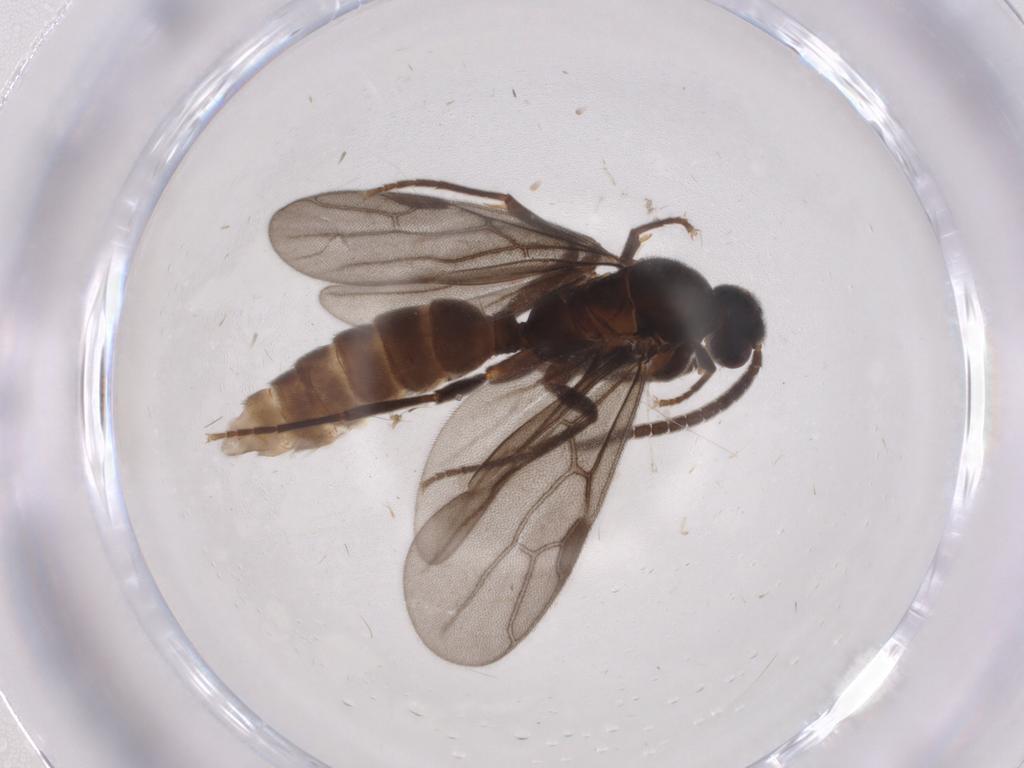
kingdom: Animalia
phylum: Arthropoda
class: Insecta
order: Hymenoptera
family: Formicidae
